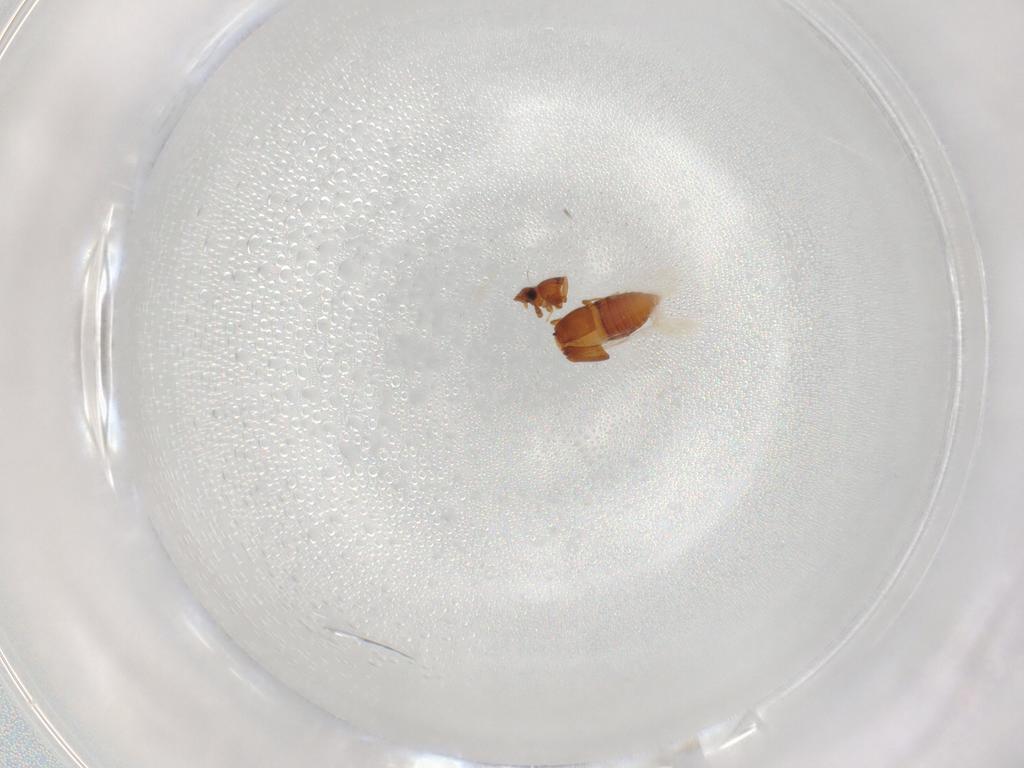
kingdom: Animalia
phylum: Arthropoda
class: Insecta
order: Coleoptera
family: Staphylinidae
